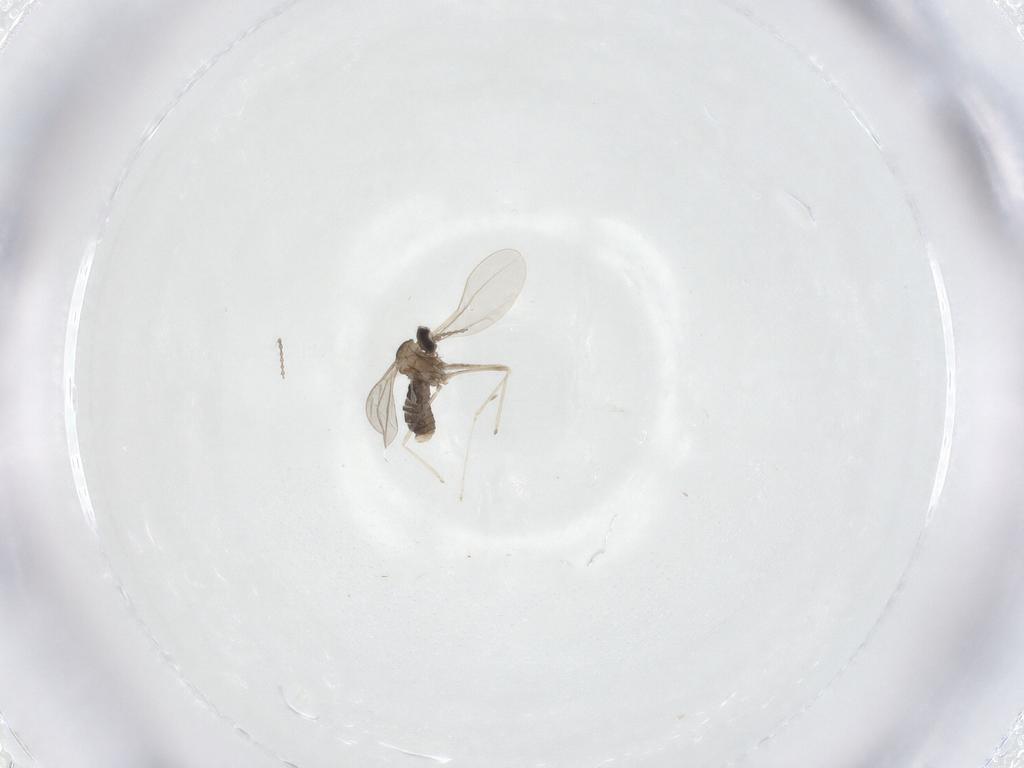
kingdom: Animalia
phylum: Arthropoda
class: Insecta
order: Diptera
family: Cecidomyiidae
